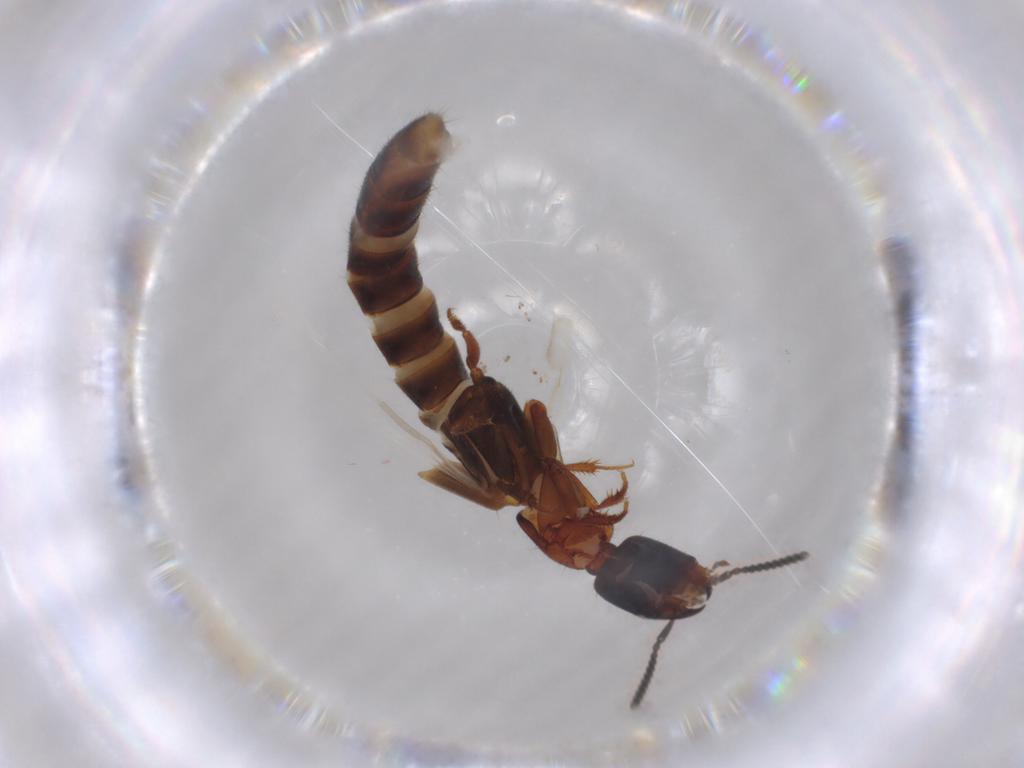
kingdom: Animalia
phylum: Arthropoda
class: Insecta
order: Coleoptera
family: Staphylinidae
